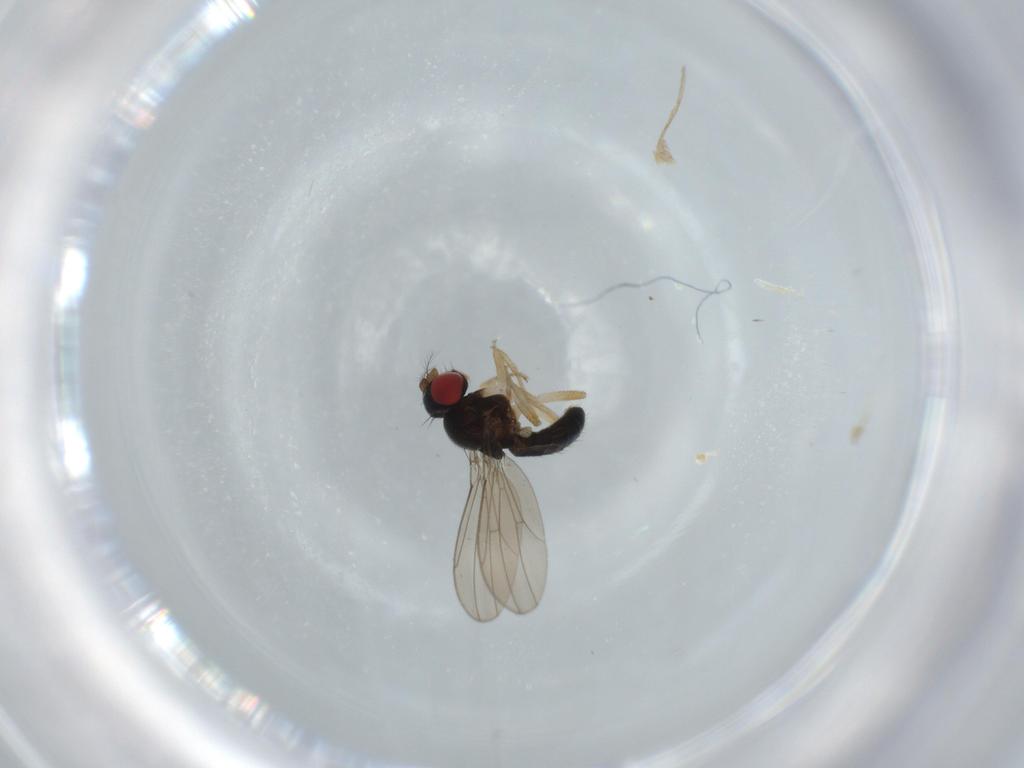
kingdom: Animalia
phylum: Arthropoda
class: Insecta
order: Diptera
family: Drosophilidae
